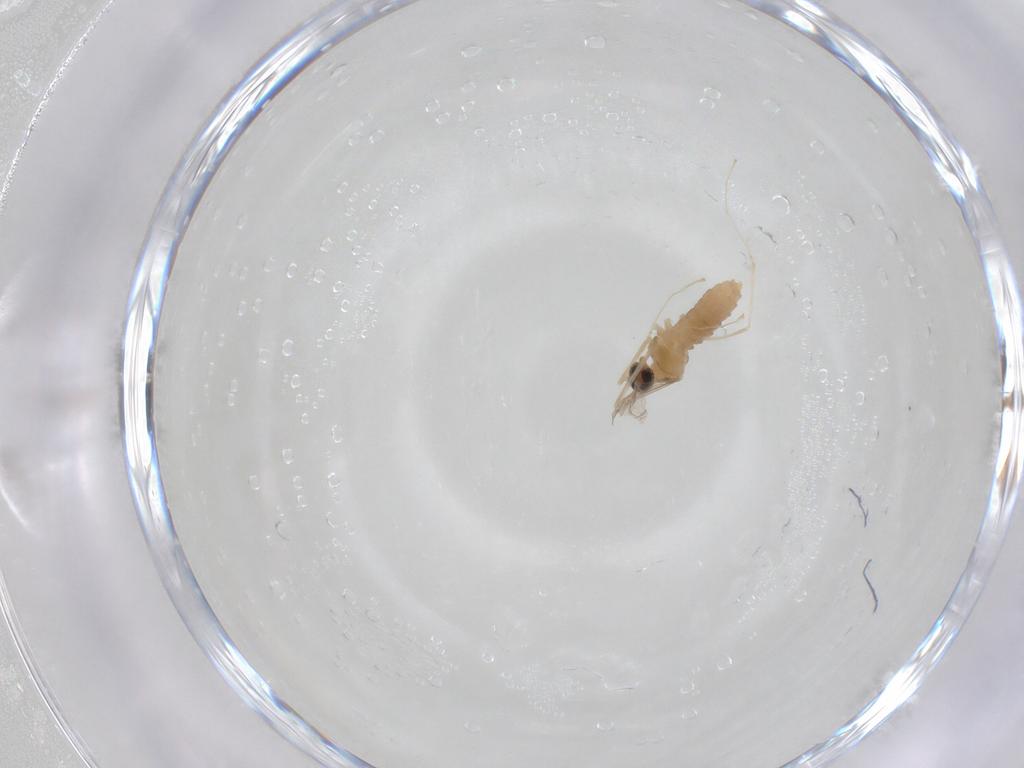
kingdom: Animalia
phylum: Arthropoda
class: Insecta
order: Diptera
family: Cecidomyiidae
